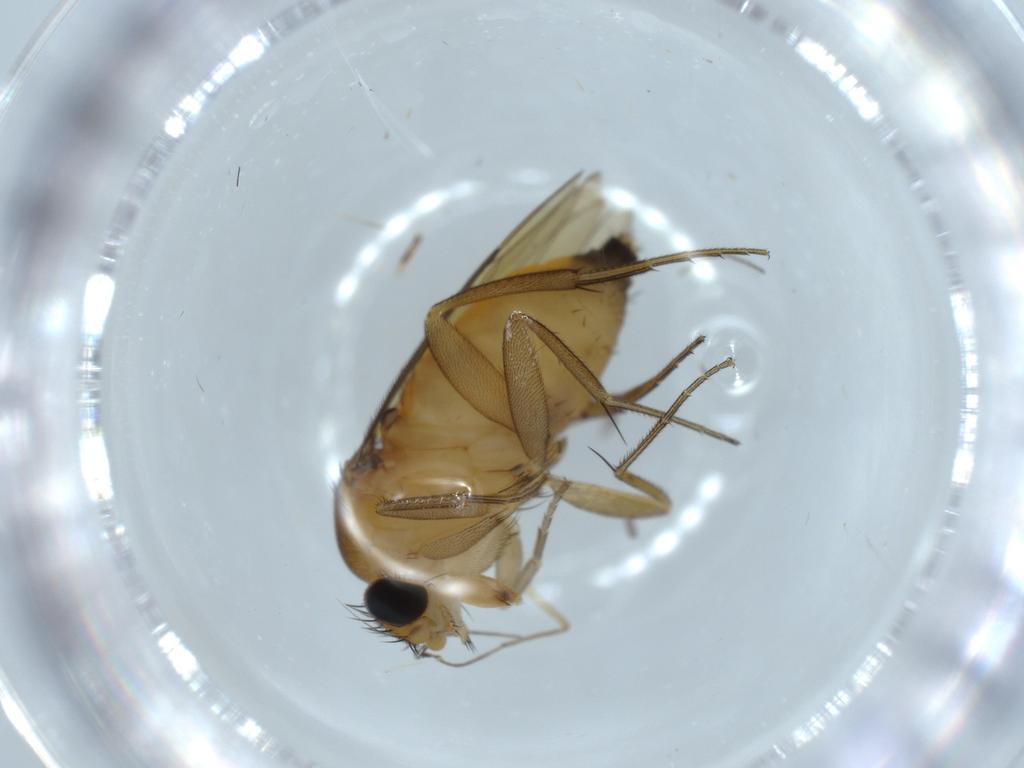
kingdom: Animalia
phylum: Arthropoda
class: Insecta
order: Diptera
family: Phoridae
